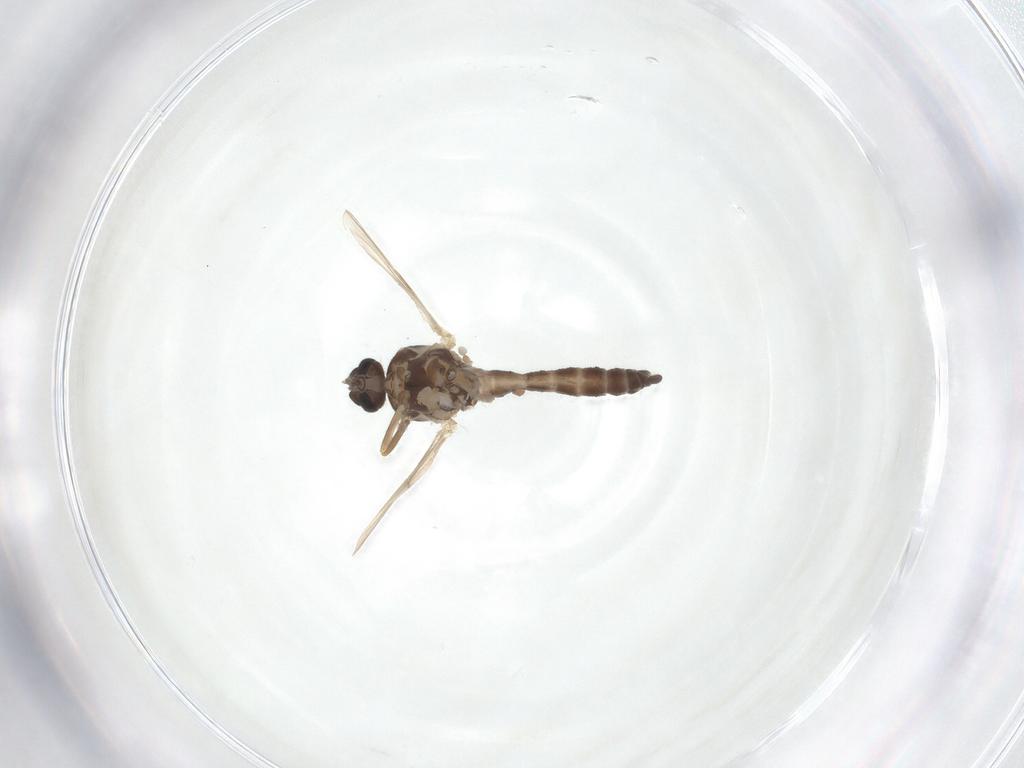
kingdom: Animalia
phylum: Arthropoda
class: Insecta
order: Diptera
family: Ceratopogonidae
